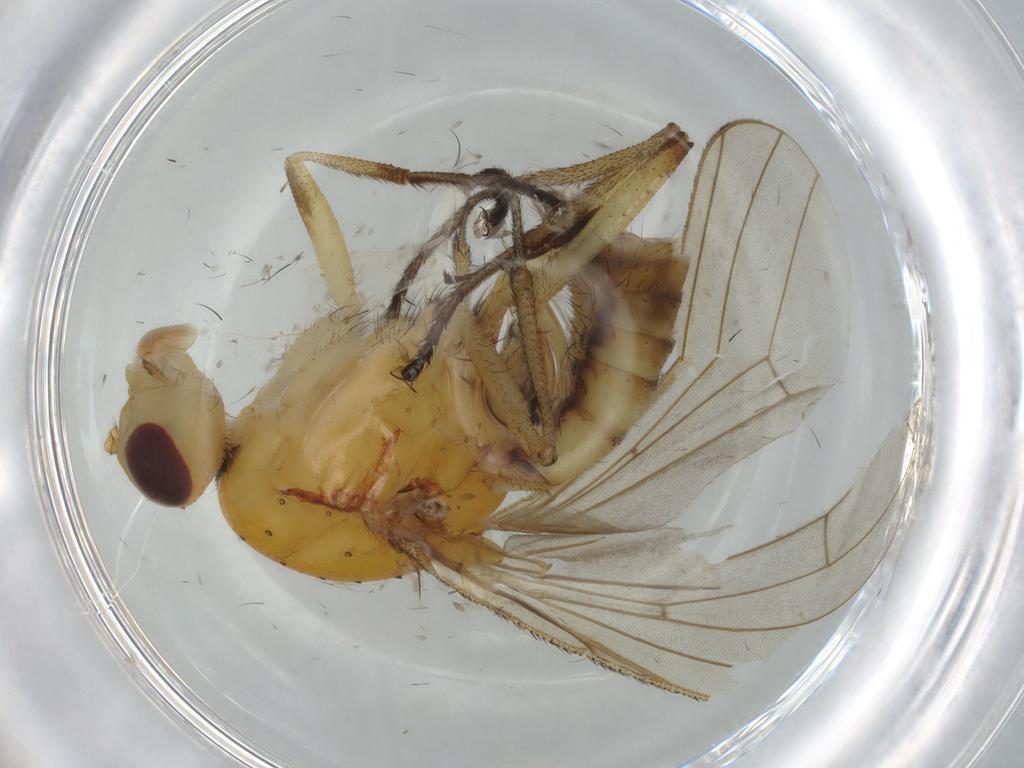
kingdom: Animalia
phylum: Arthropoda
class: Insecta
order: Diptera
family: Heleomyzidae
